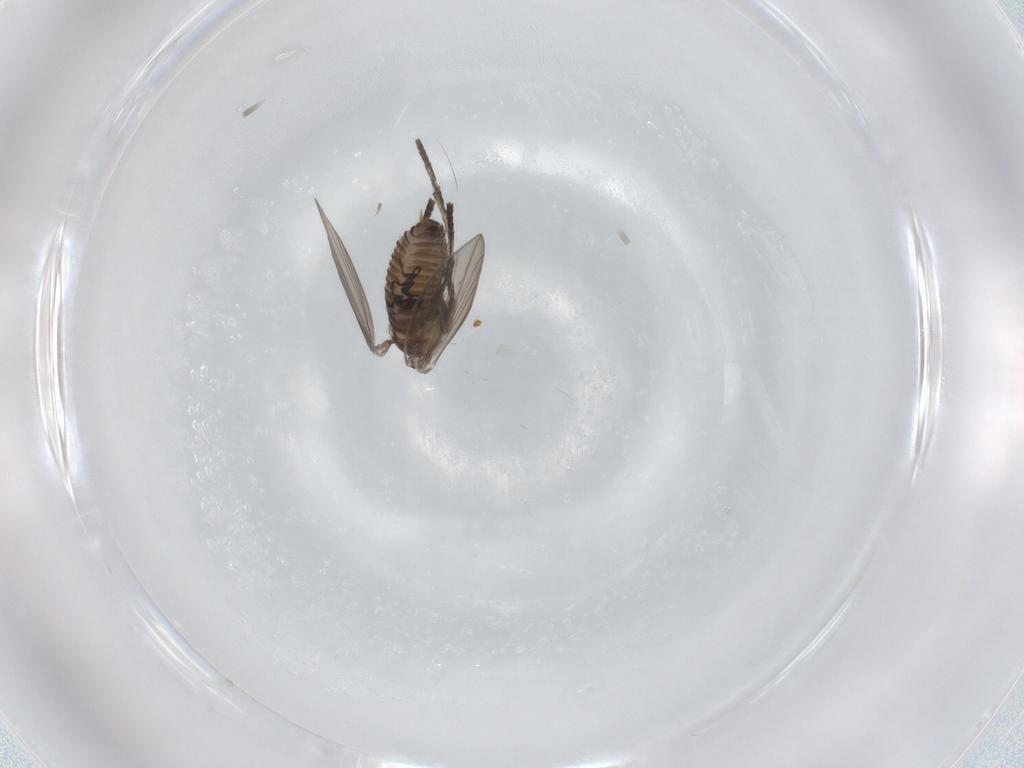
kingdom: Animalia
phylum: Arthropoda
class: Insecta
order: Diptera
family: Psychodidae
